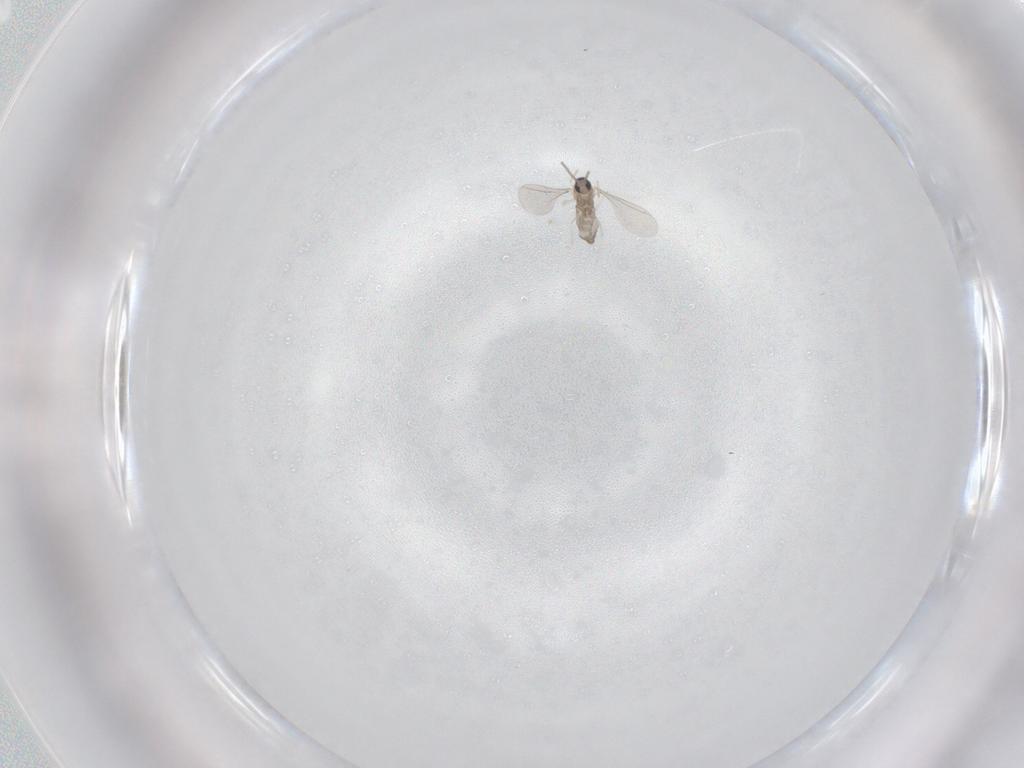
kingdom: Animalia
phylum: Arthropoda
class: Insecta
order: Diptera
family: Cecidomyiidae
